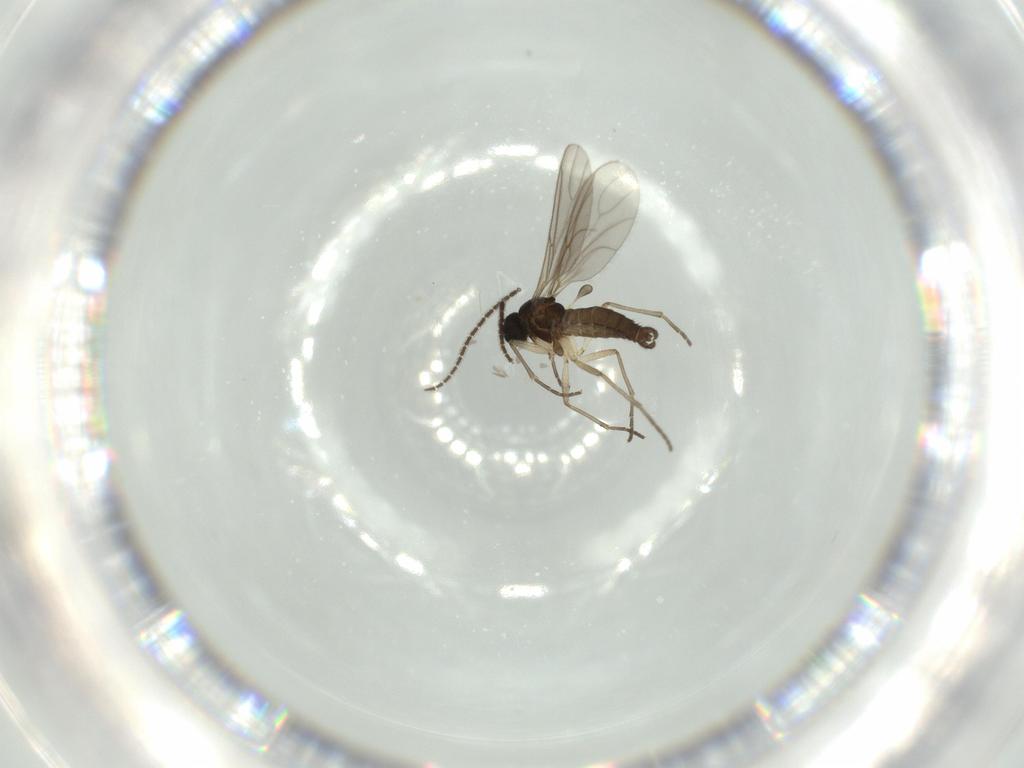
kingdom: Animalia
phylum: Arthropoda
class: Insecta
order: Diptera
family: Sciaridae
